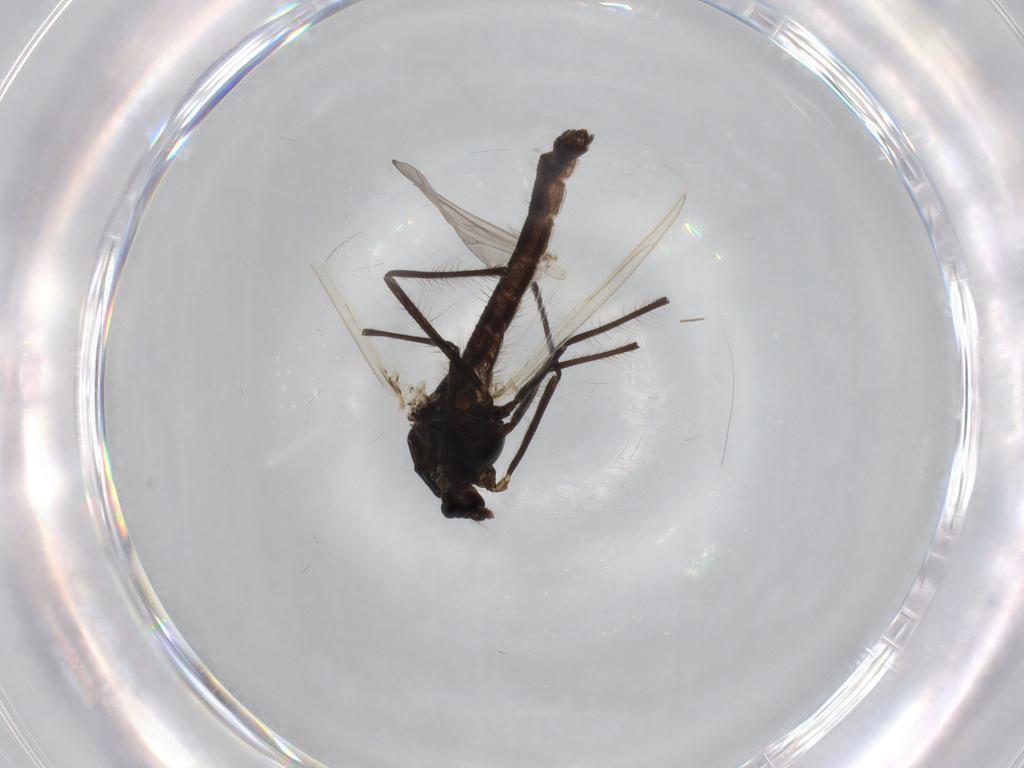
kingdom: Animalia
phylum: Arthropoda
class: Insecta
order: Diptera
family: Chironomidae
